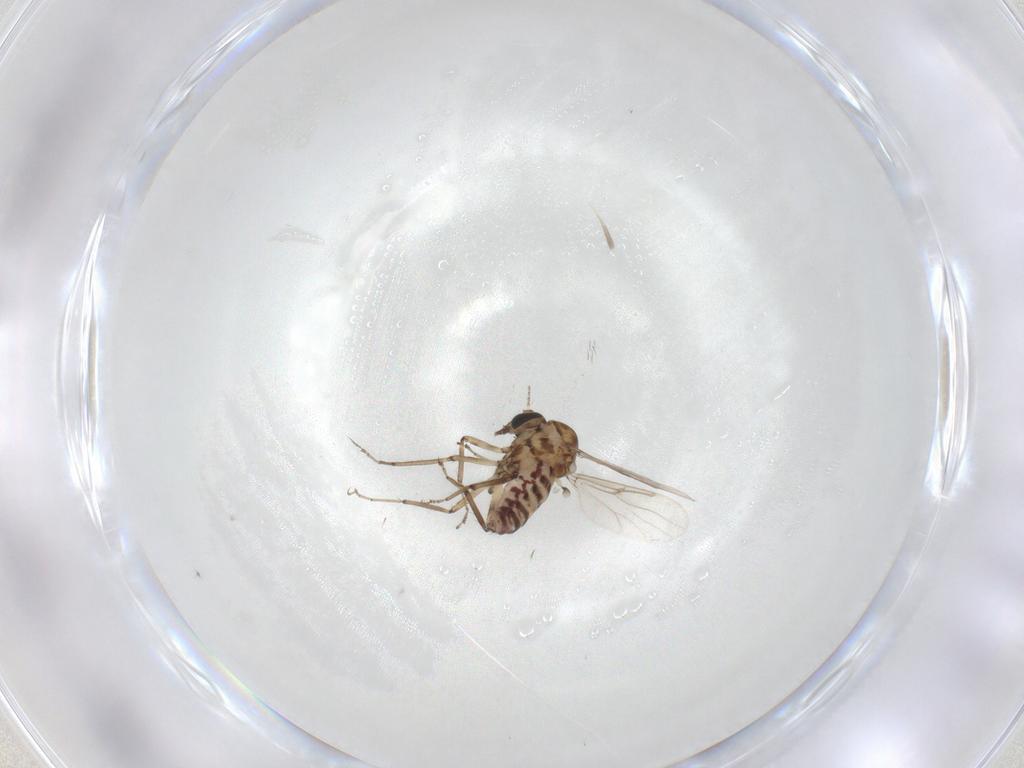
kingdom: Animalia
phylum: Arthropoda
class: Insecta
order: Diptera
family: Ceratopogonidae
